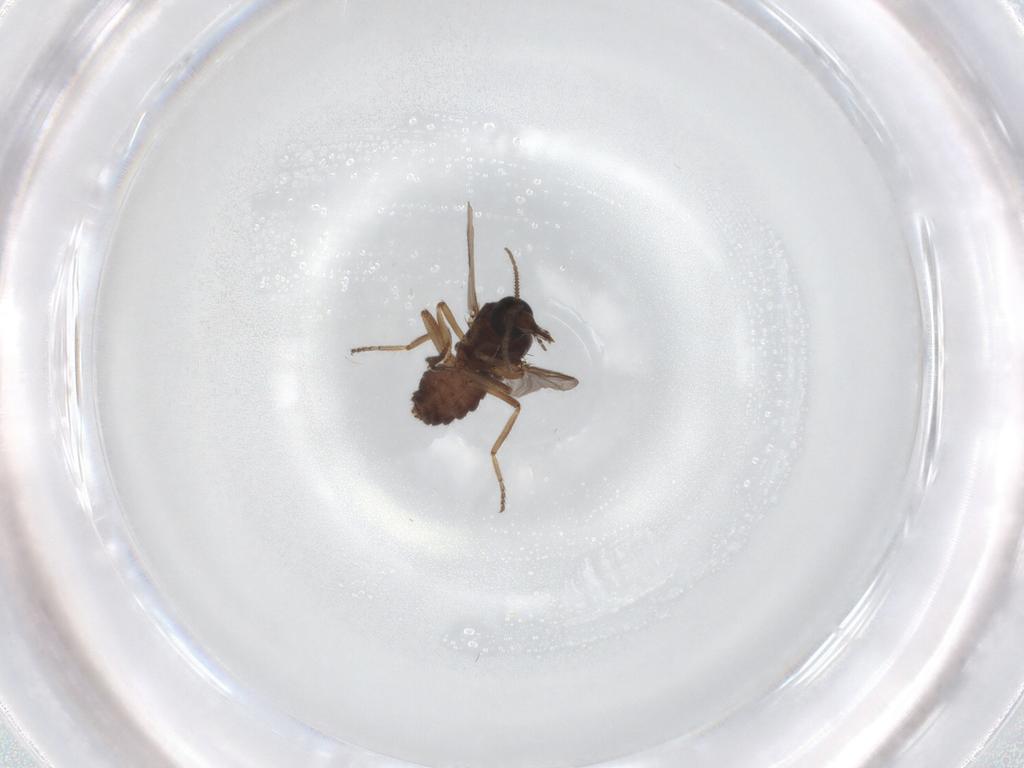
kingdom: Animalia
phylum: Arthropoda
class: Insecta
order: Diptera
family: Ceratopogonidae
